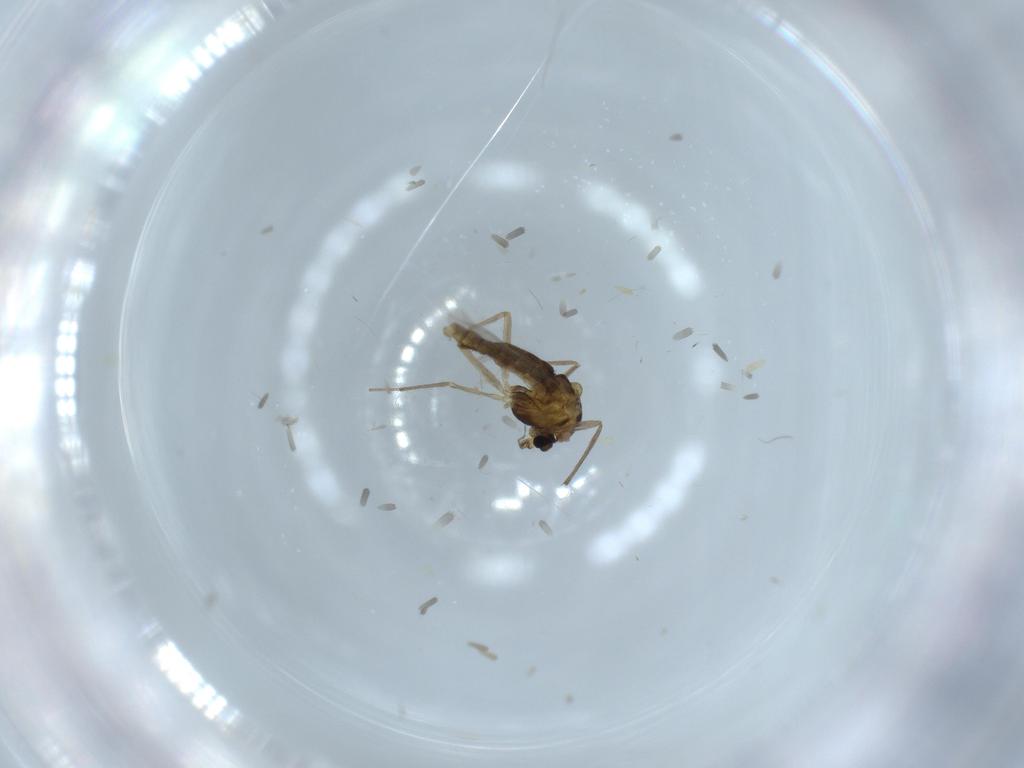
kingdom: Animalia
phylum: Arthropoda
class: Insecta
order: Diptera
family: Chironomidae
